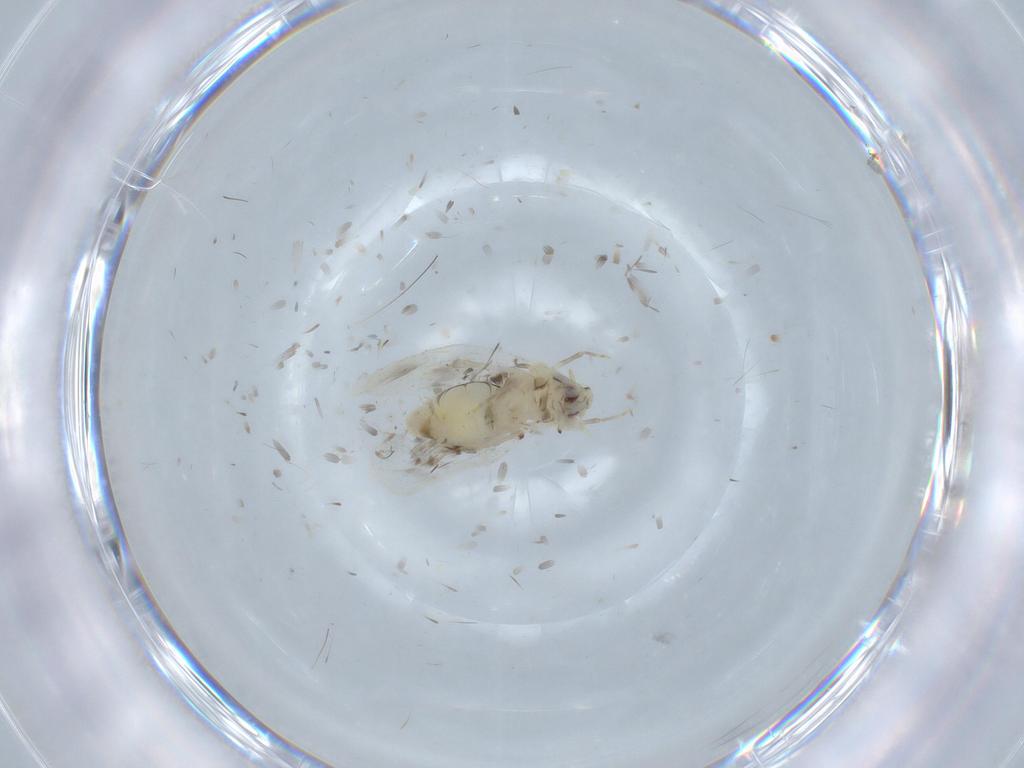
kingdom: Animalia
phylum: Arthropoda
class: Insecta
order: Hemiptera
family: Aleyrodidae
